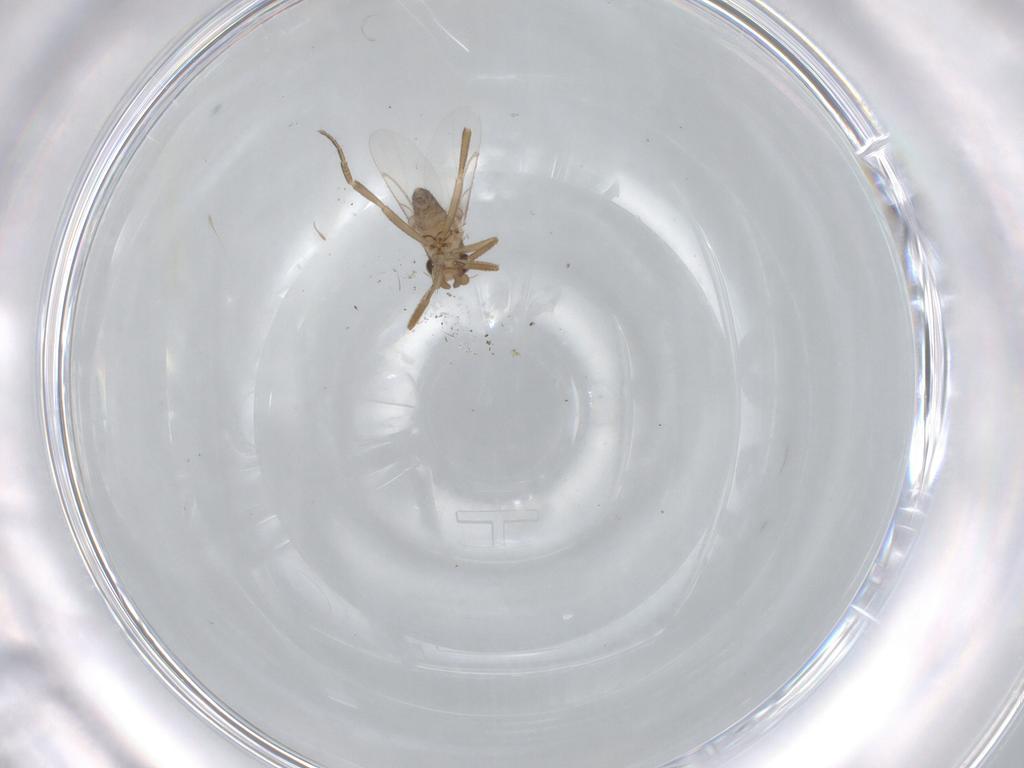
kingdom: Animalia
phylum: Arthropoda
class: Insecta
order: Diptera
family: Phoridae
